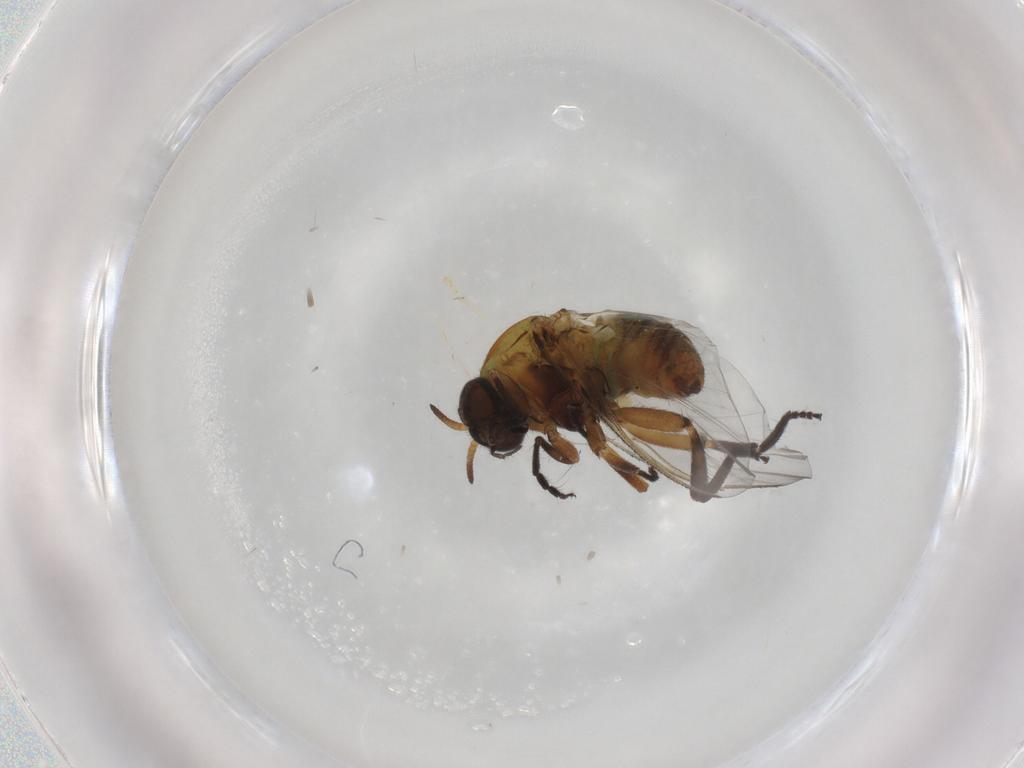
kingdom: Animalia
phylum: Arthropoda
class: Insecta
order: Diptera
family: Simuliidae
